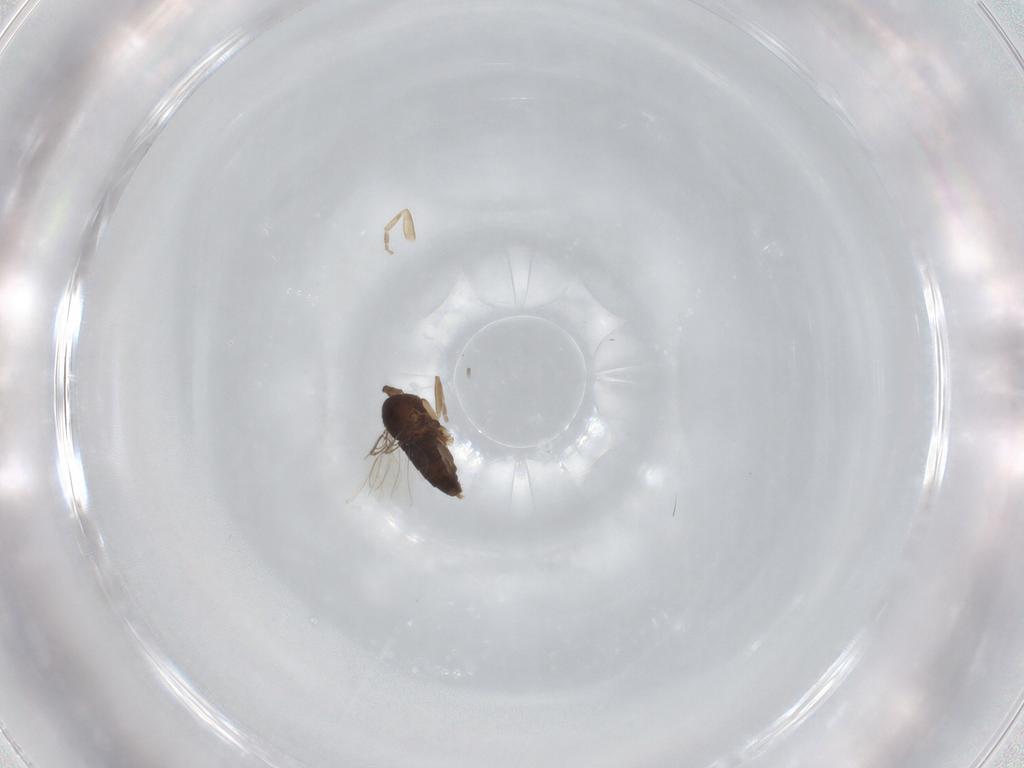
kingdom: Animalia
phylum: Arthropoda
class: Insecta
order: Diptera
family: Phoridae
